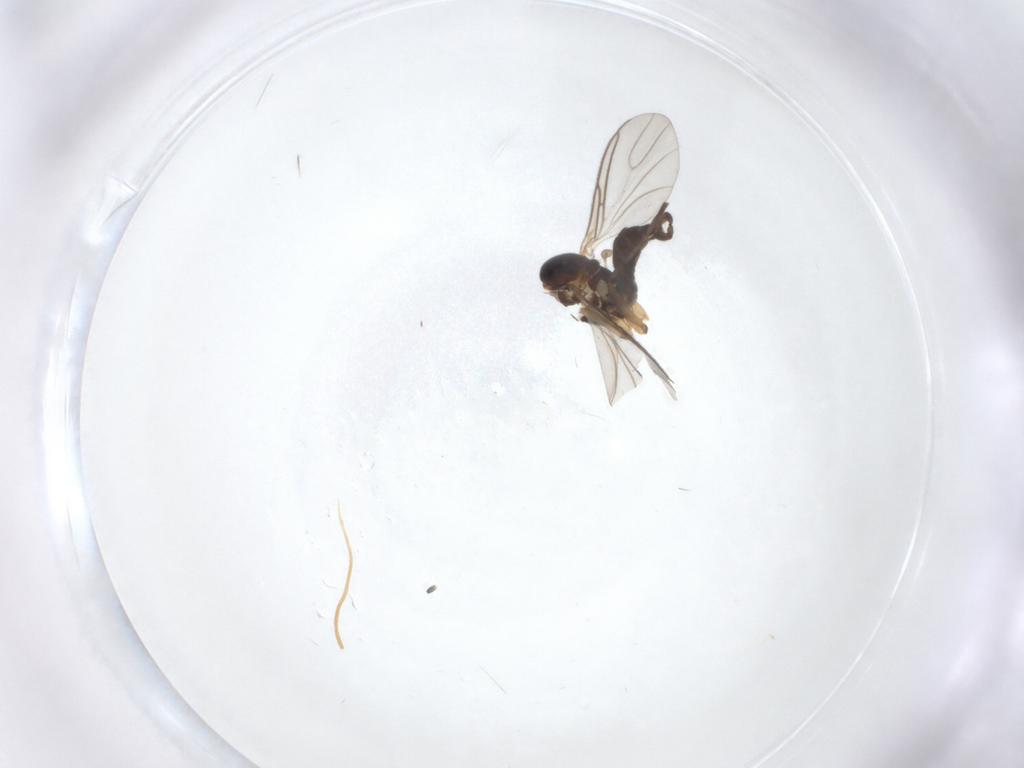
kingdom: Animalia
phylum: Arthropoda
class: Insecta
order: Diptera
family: Sciaridae
